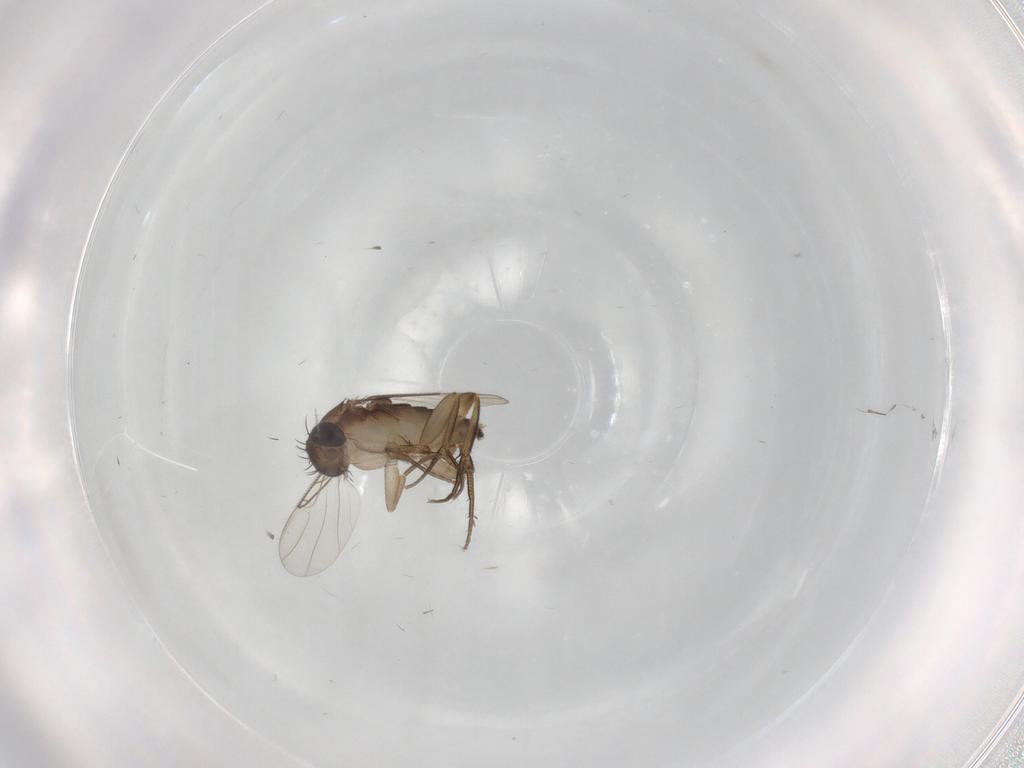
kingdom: Animalia
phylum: Arthropoda
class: Insecta
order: Diptera
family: Phoridae
